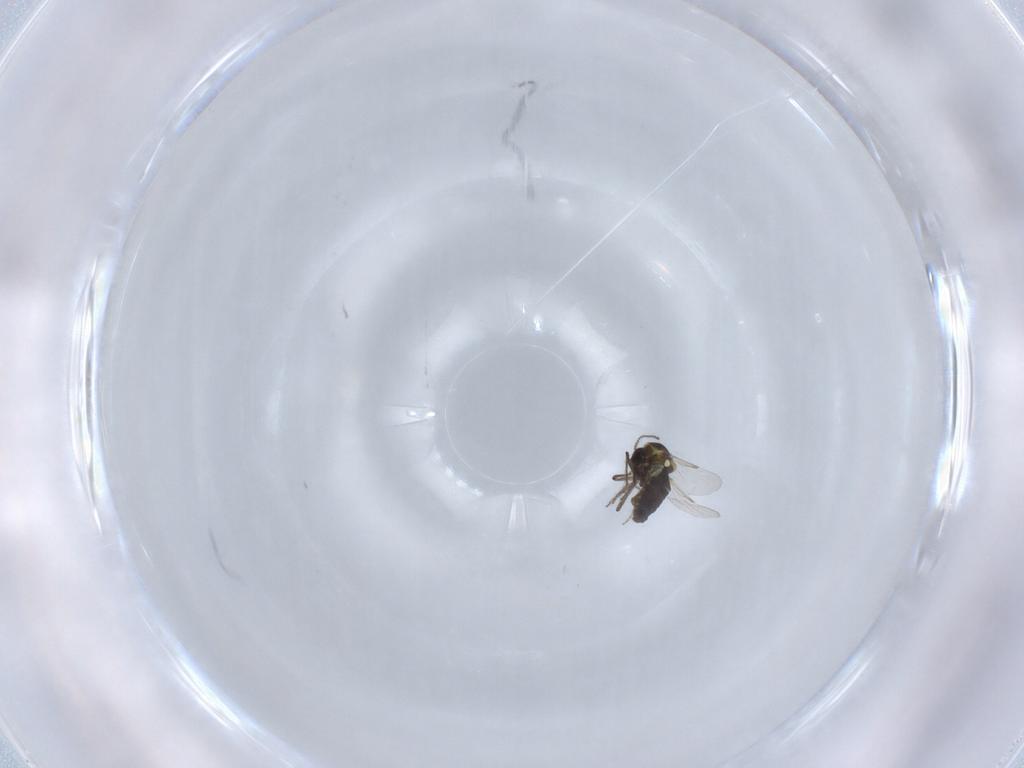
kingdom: Animalia
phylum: Arthropoda
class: Insecta
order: Diptera
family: Ceratopogonidae
